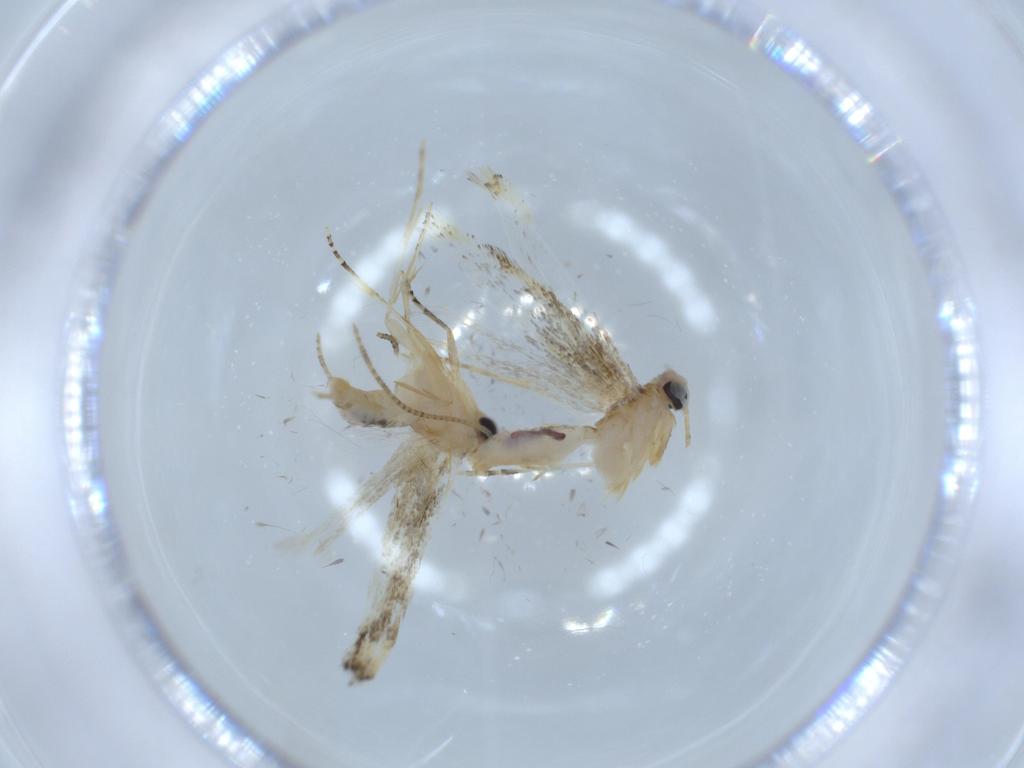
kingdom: Animalia
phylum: Arthropoda
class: Insecta
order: Lepidoptera
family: Bucculatricidae
